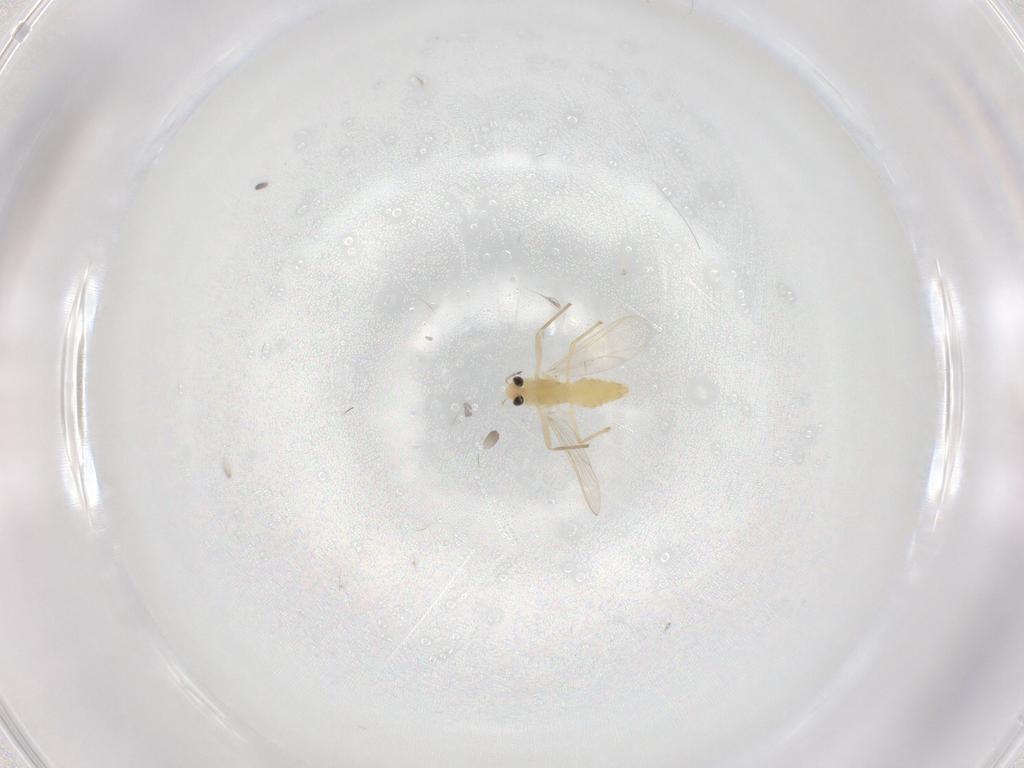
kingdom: Animalia
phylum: Arthropoda
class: Insecta
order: Diptera
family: Chironomidae
